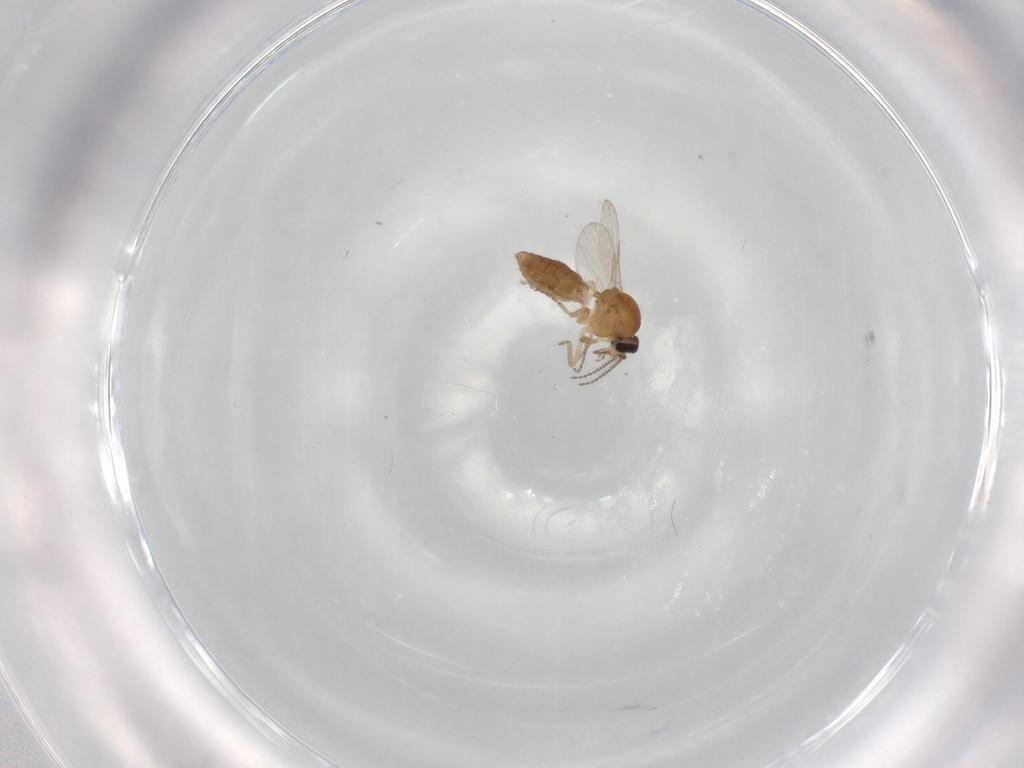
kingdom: Animalia
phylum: Arthropoda
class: Insecta
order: Diptera
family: Ceratopogonidae
